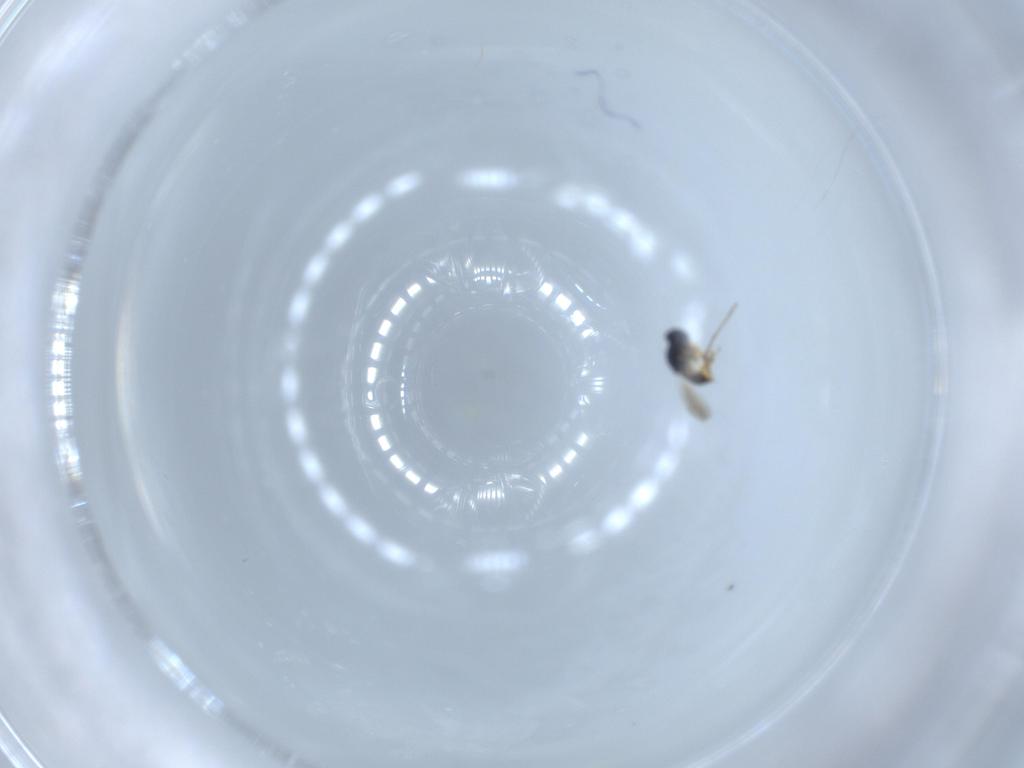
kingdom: Animalia
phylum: Arthropoda
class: Insecta
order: Hymenoptera
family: Platygastridae
